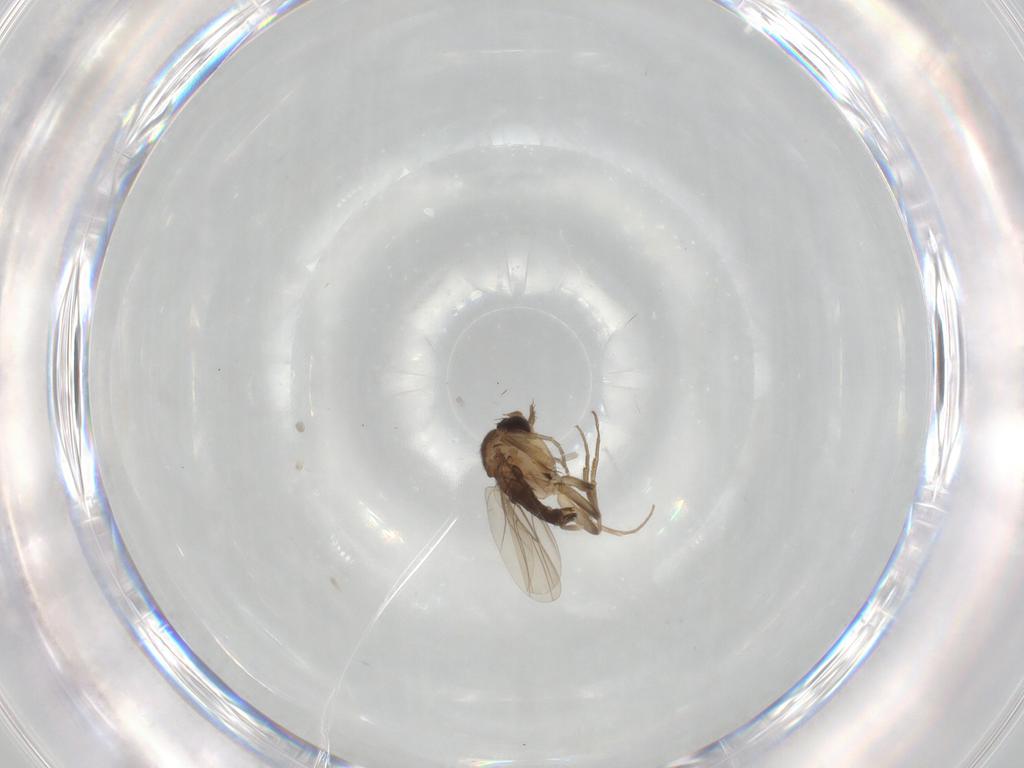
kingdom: Animalia
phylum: Arthropoda
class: Insecta
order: Diptera
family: Phoridae
